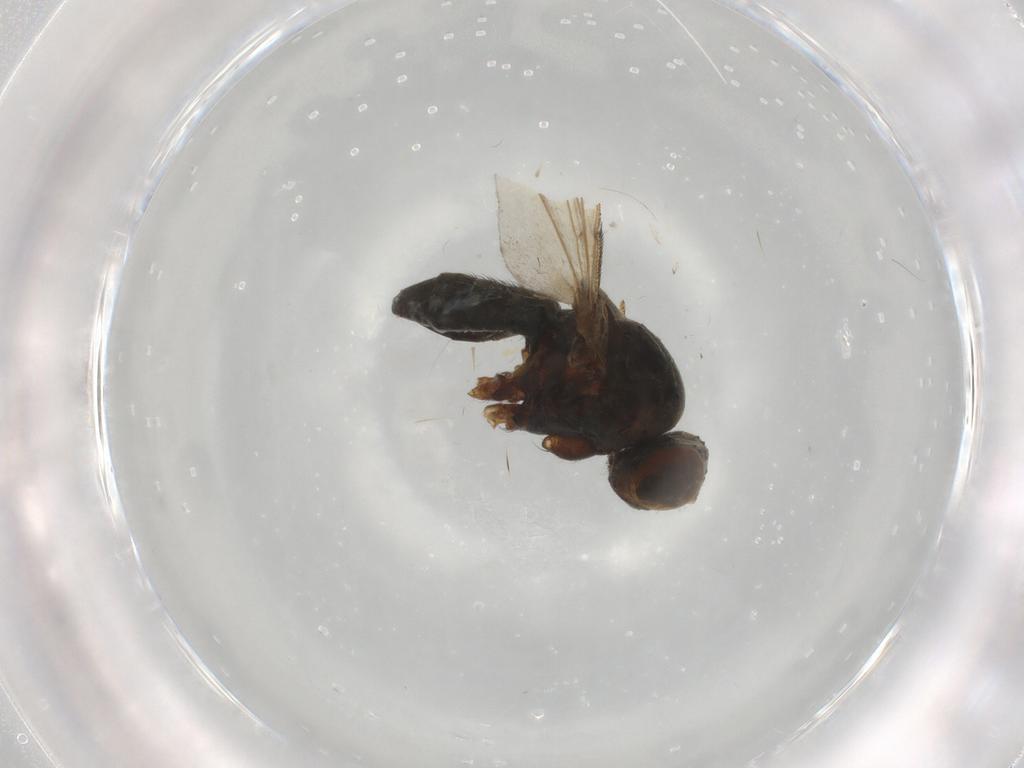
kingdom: Animalia
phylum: Arthropoda
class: Insecta
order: Diptera
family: Ephydridae
